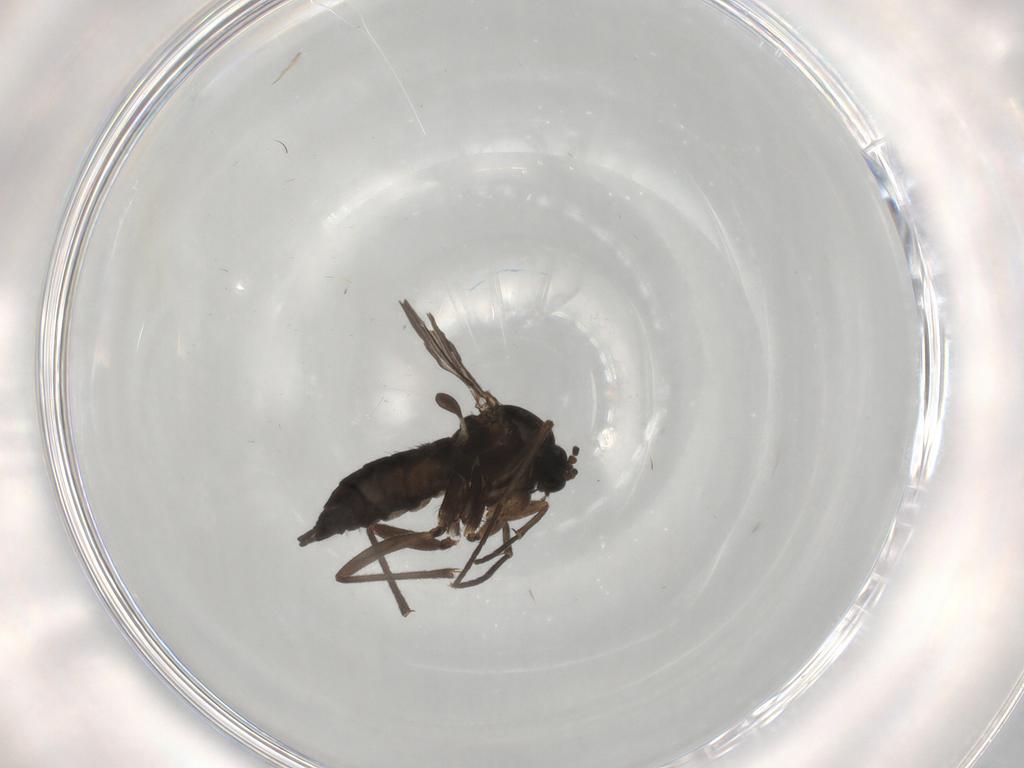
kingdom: Animalia
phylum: Arthropoda
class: Insecta
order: Diptera
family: Sciaridae
